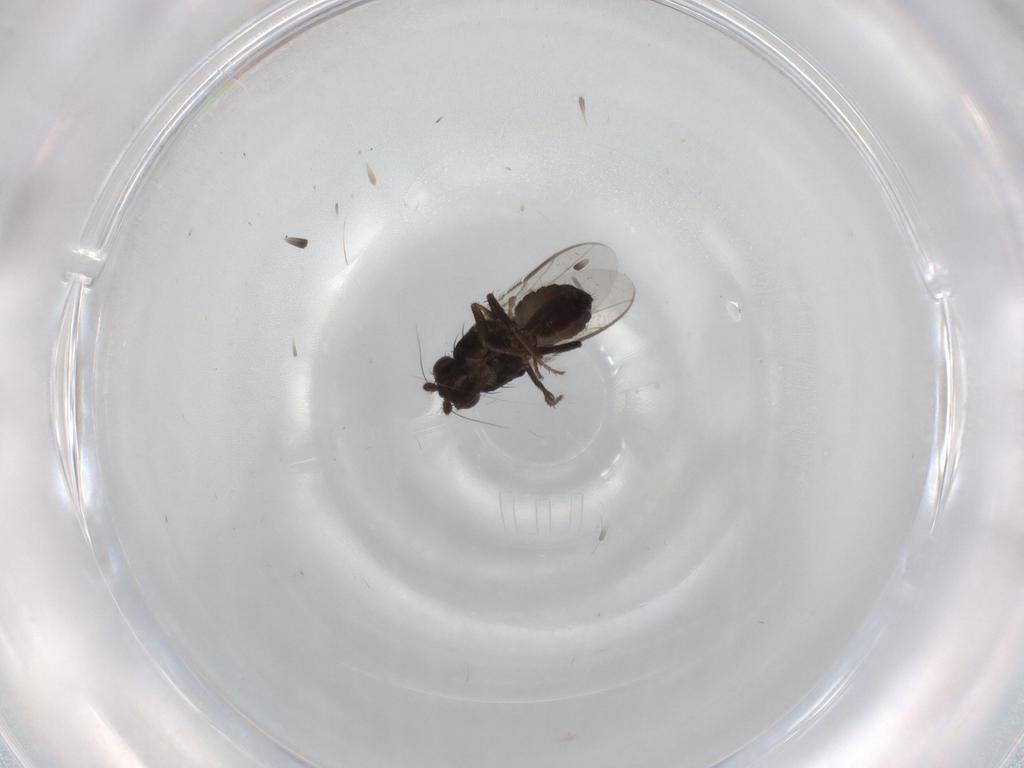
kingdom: Animalia
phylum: Arthropoda
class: Insecta
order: Diptera
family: Sphaeroceridae
